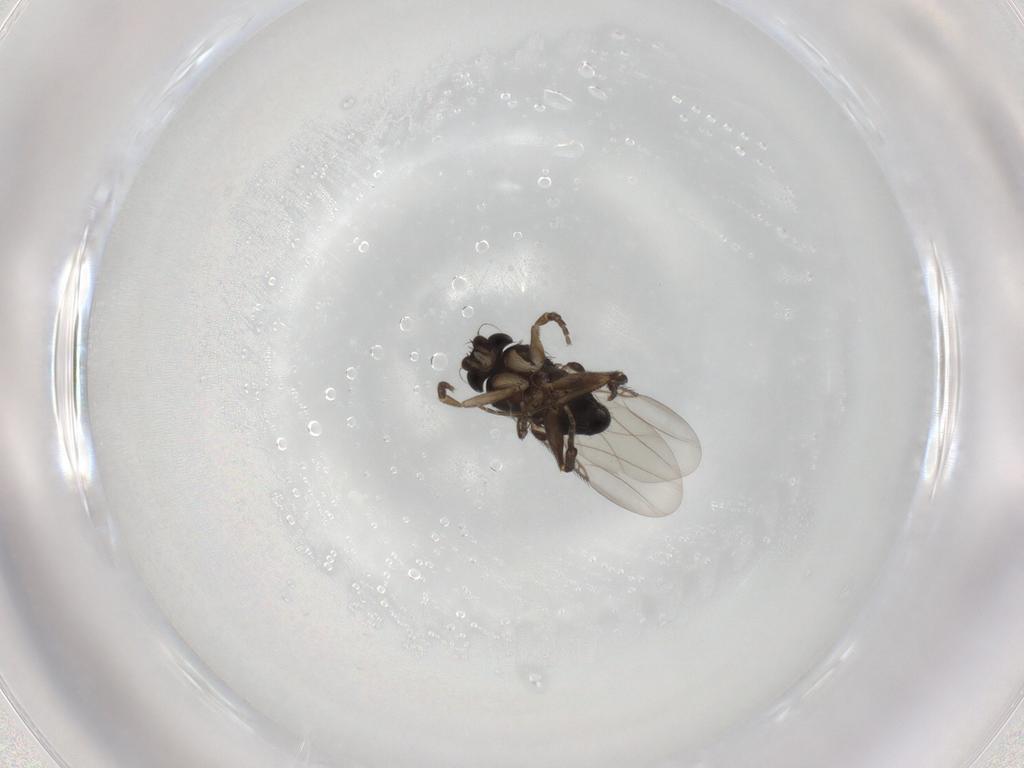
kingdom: Animalia
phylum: Arthropoda
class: Insecta
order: Diptera
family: Phoridae
